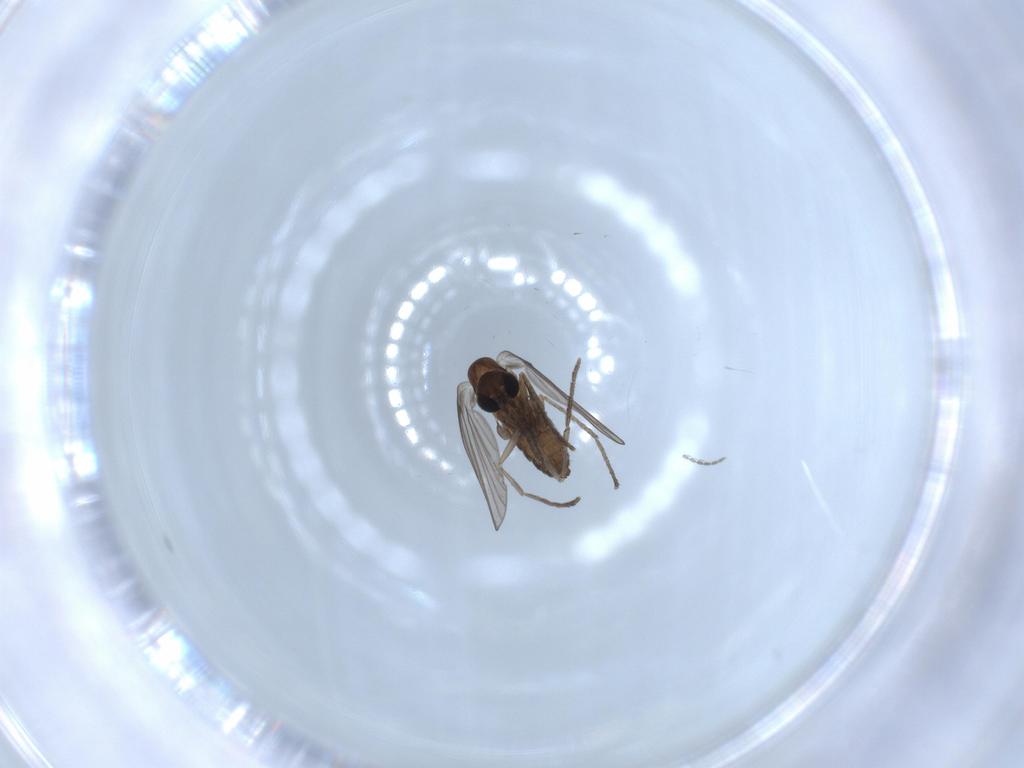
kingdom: Animalia
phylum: Arthropoda
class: Insecta
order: Diptera
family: Psychodidae
